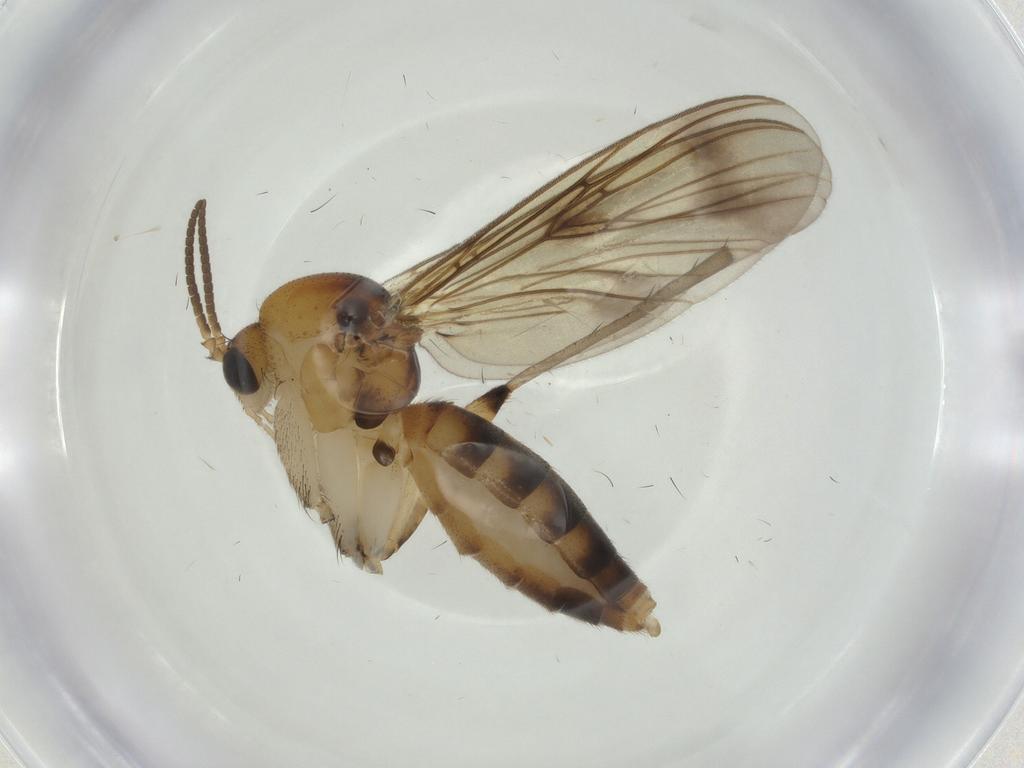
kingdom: Animalia
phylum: Arthropoda
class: Insecta
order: Diptera
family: Mycetophilidae
